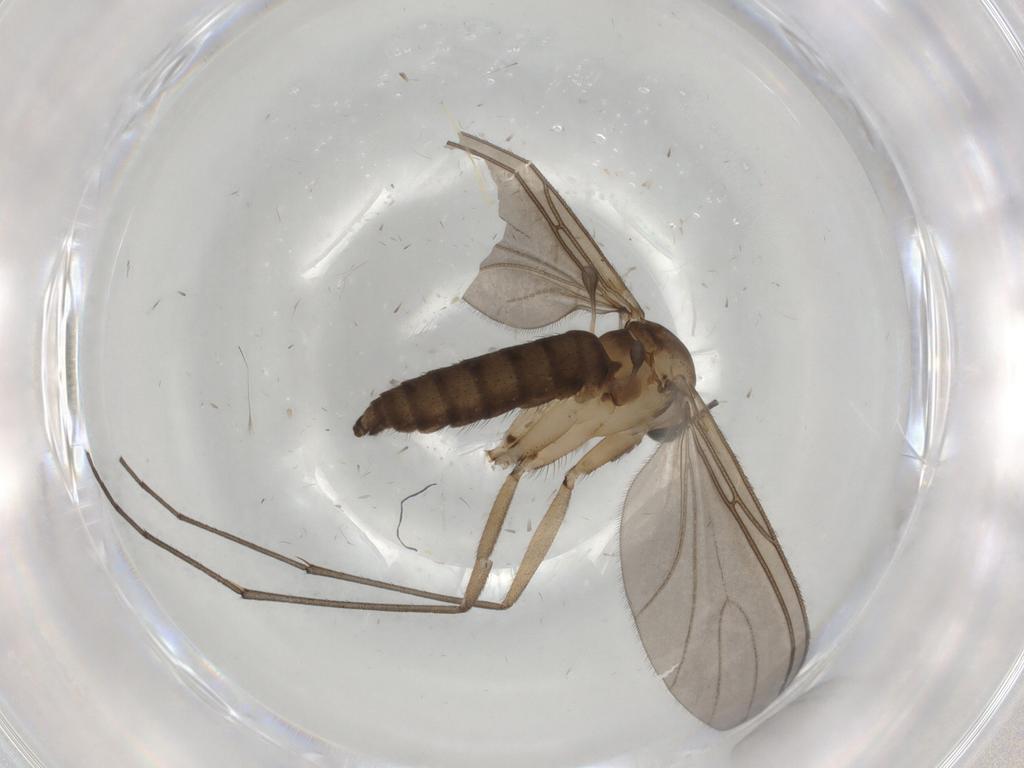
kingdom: Animalia
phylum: Arthropoda
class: Insecta
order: Diptera
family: Chironomidae
